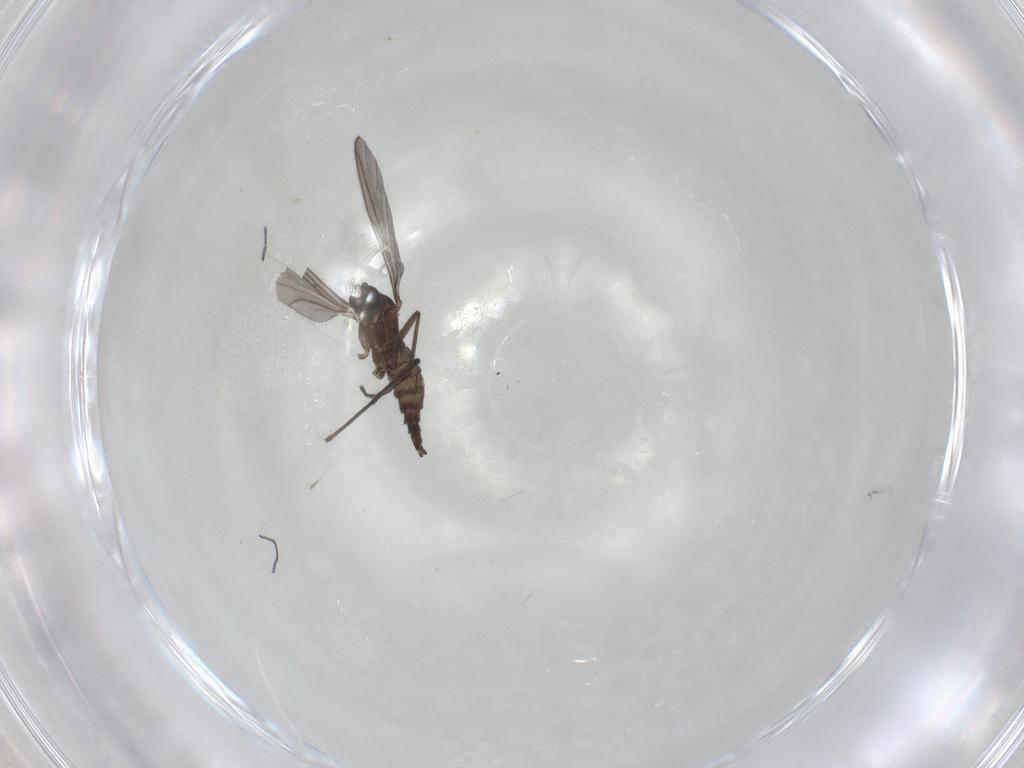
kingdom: Animalia
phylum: Arthropoda
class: Insecta
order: Diptera
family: Sciaridae
